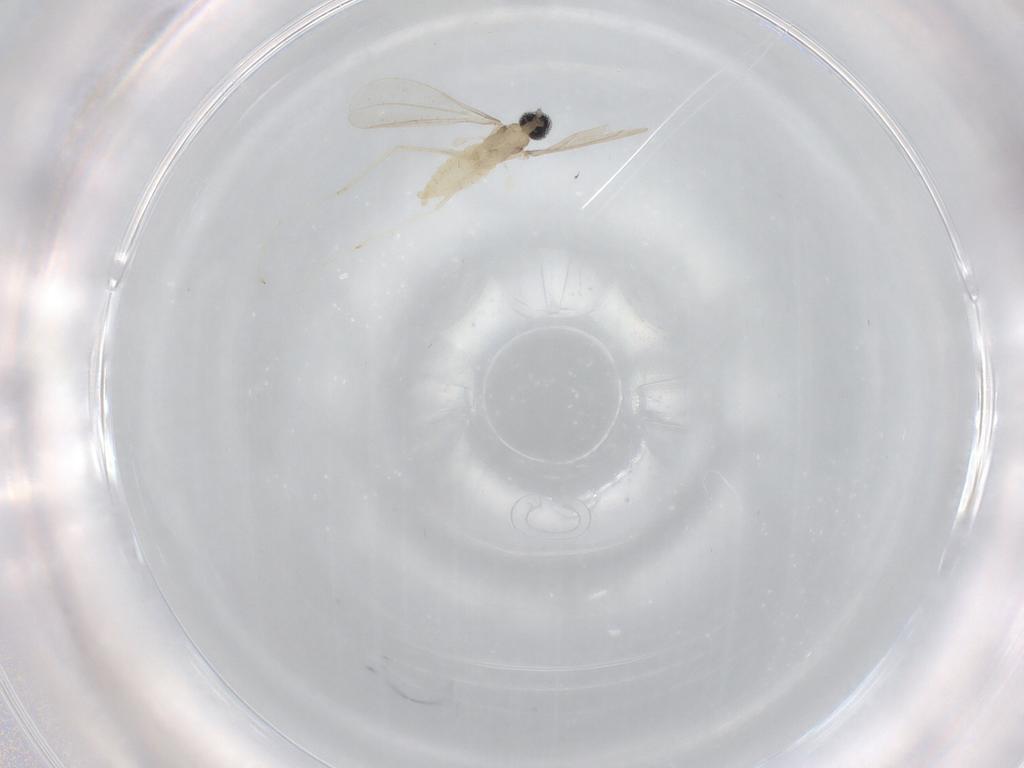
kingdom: Animalia
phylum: Arthropoda
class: Insecta
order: Diptera
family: Cecidomyiidae
